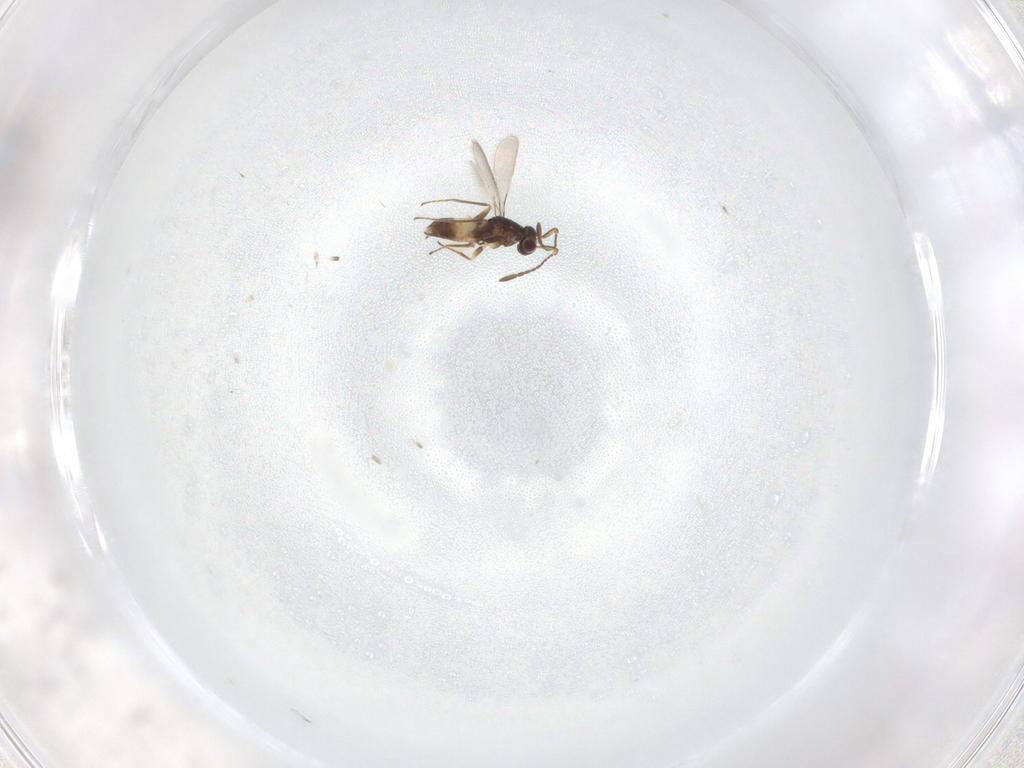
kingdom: Animalia
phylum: Arthropoda
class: Insecta
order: Hymenoptera
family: Mymaridae
